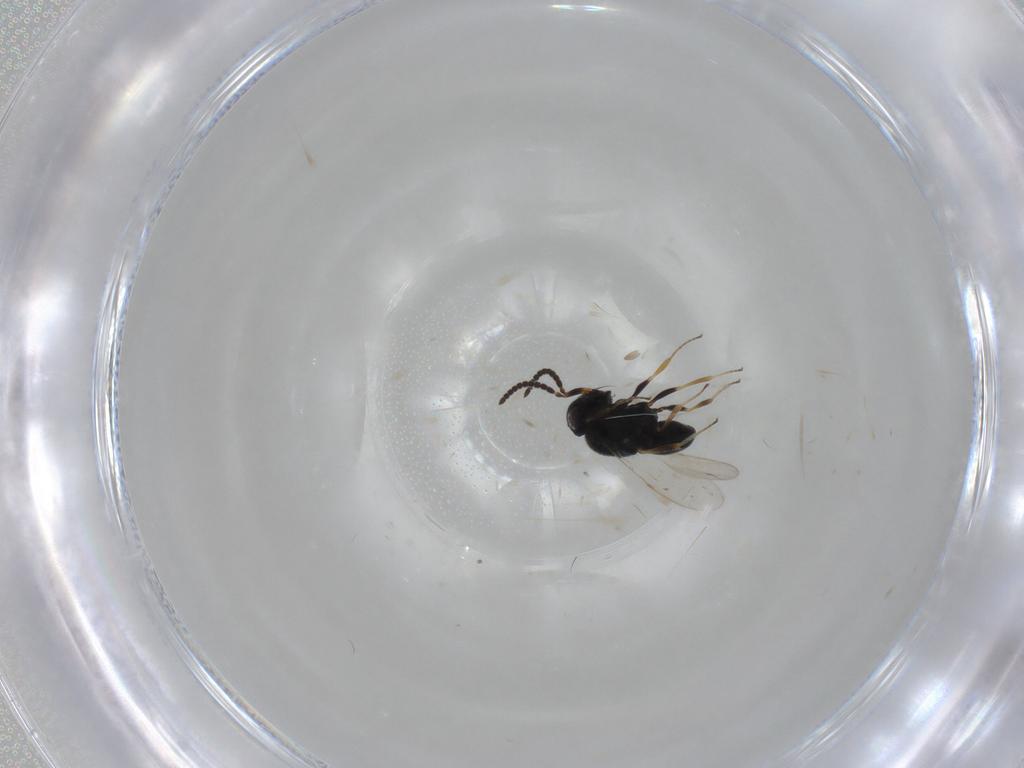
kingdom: Animalia
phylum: Arthropoda
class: Insecta
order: Hymenoptera
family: Scelionidae
